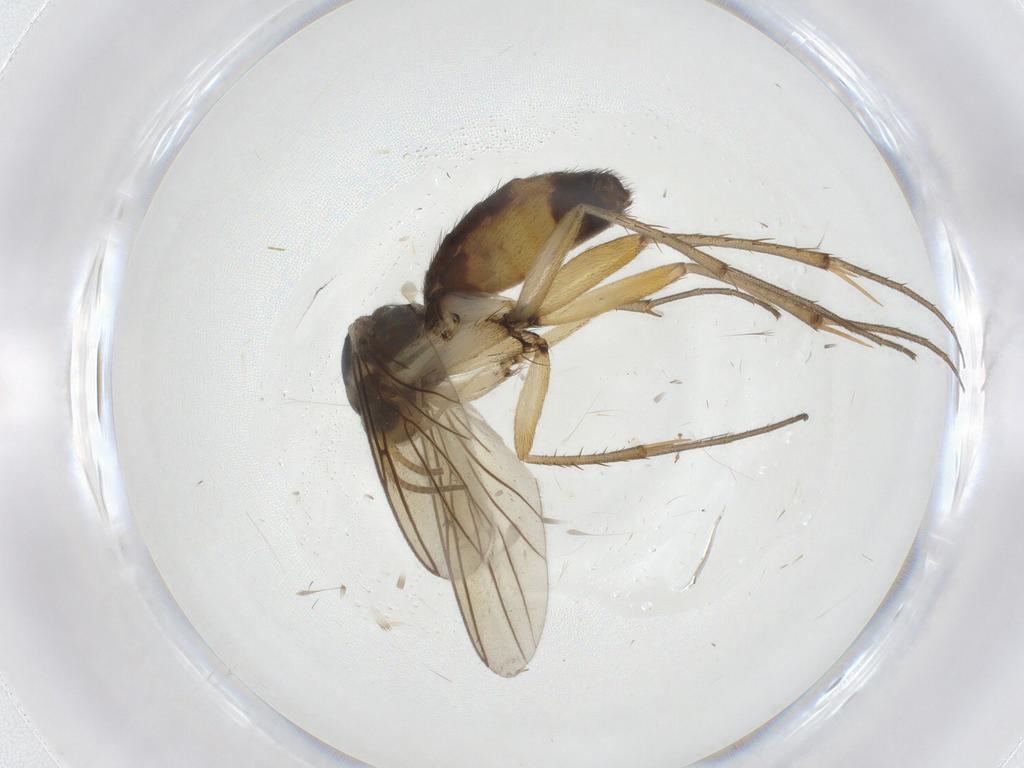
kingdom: Animalia
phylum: Arthropoda
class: Insecta
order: Diptera
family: Mycetophilidae
